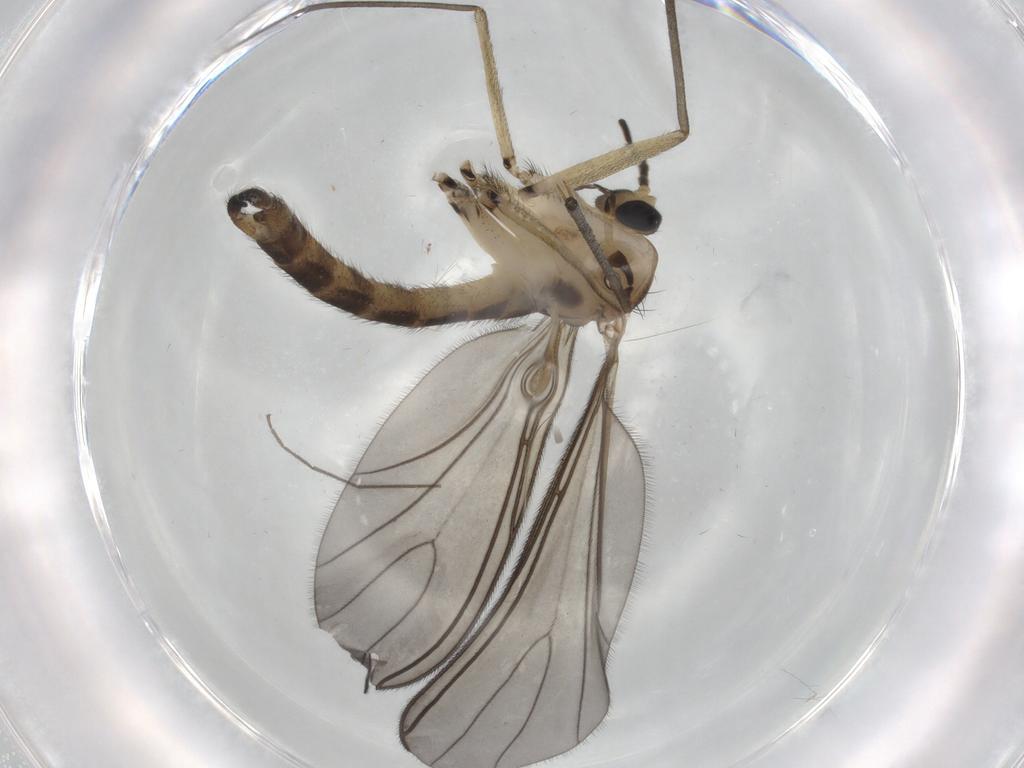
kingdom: Animalia
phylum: Arthropoda
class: Insecta
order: Diptera
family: Sciaridae
